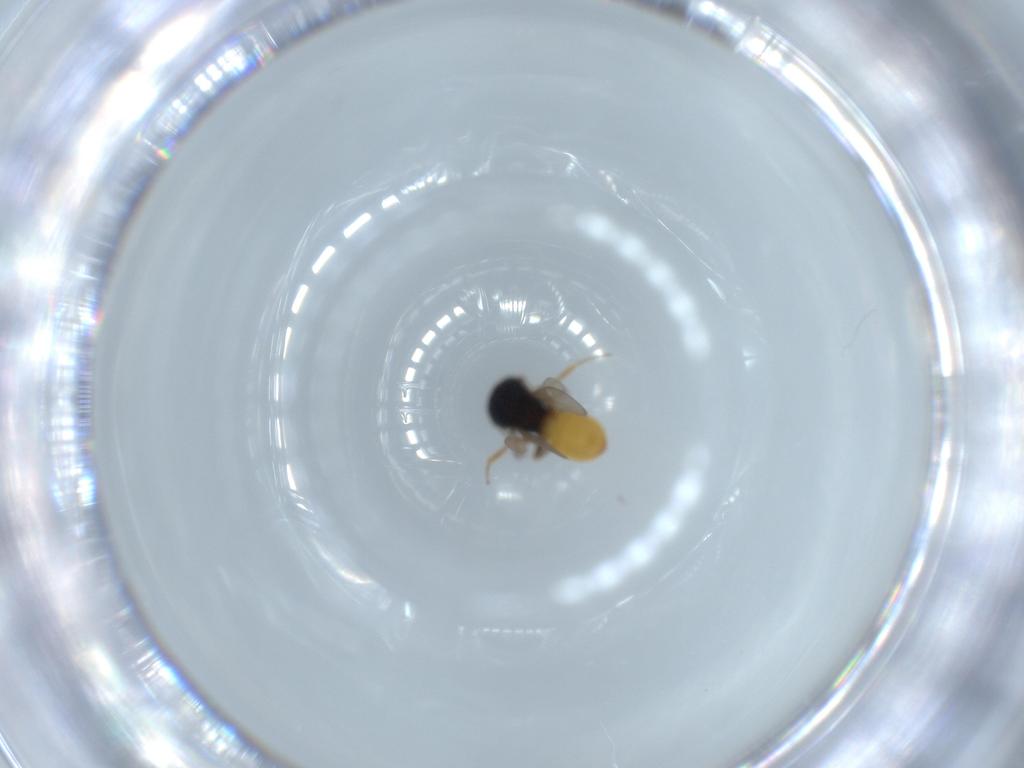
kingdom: Animalia
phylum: Arthropoda
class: Insecta
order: Hymenoptera
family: Scelionidae
